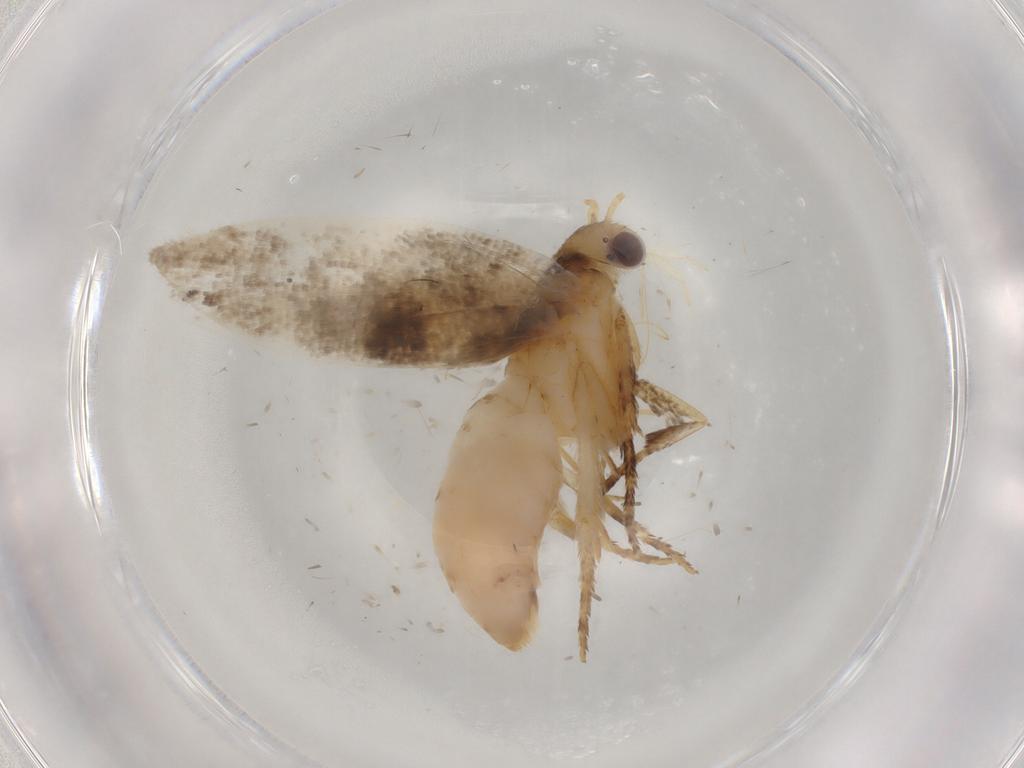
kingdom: Animalia
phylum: Arthropoda
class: Insecta
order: Lepidoptera
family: Ypsolophidae
